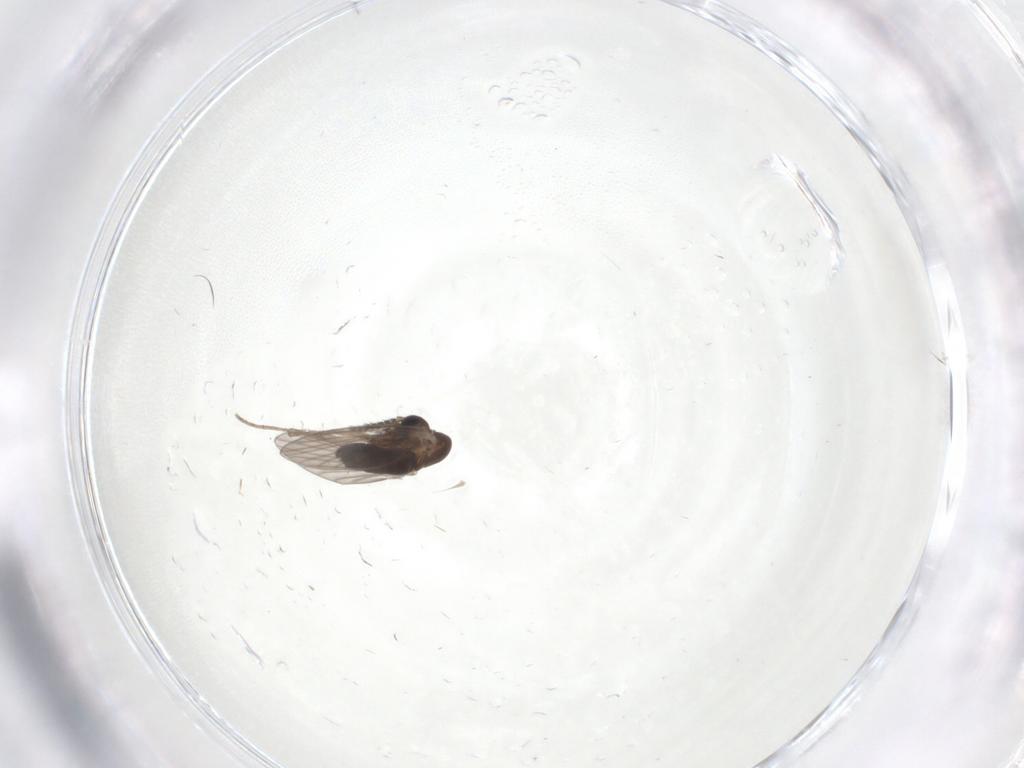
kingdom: Animalia
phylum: Arthropoda
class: Insecta
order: Diptera
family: Psychodidae
